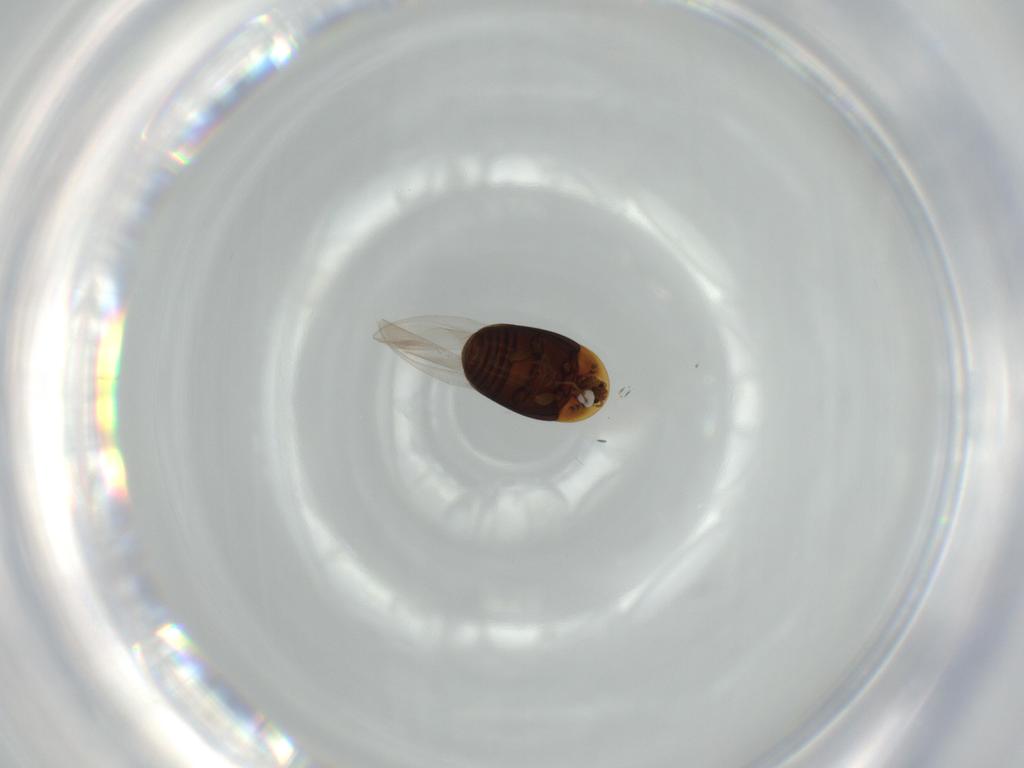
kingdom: Animalia
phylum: Arthropoda
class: Insecta
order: Coleoptera
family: Corylophidae
